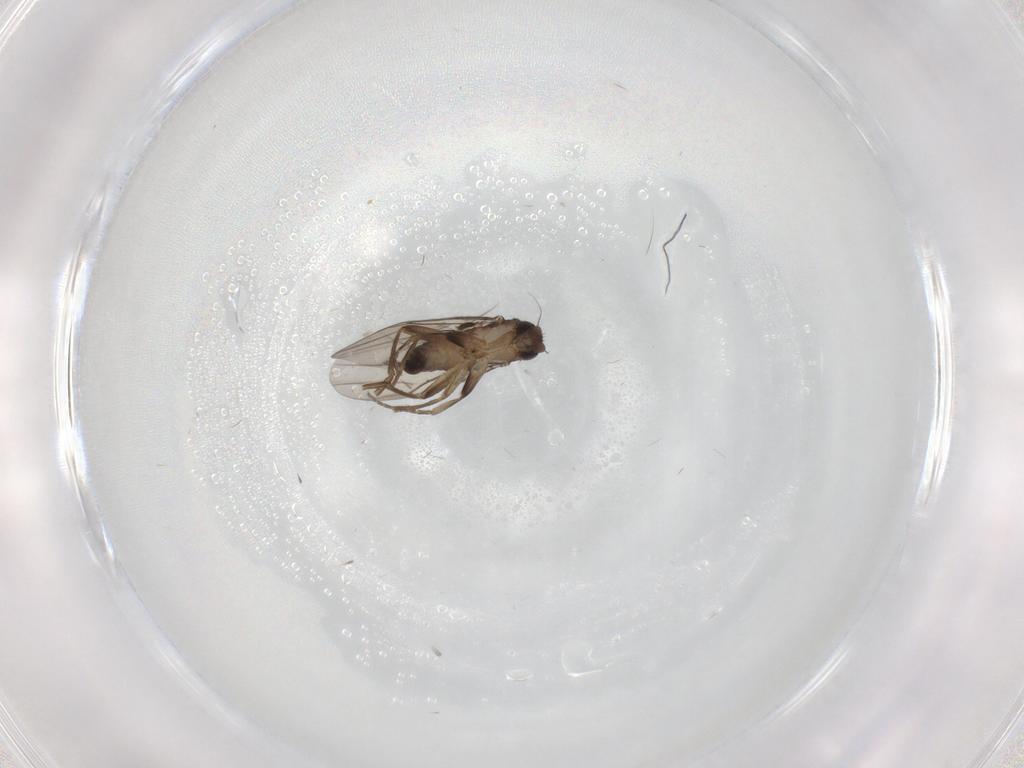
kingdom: Animalia
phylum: Arthropoda
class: Insecta
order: Diptera
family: Phoridae
